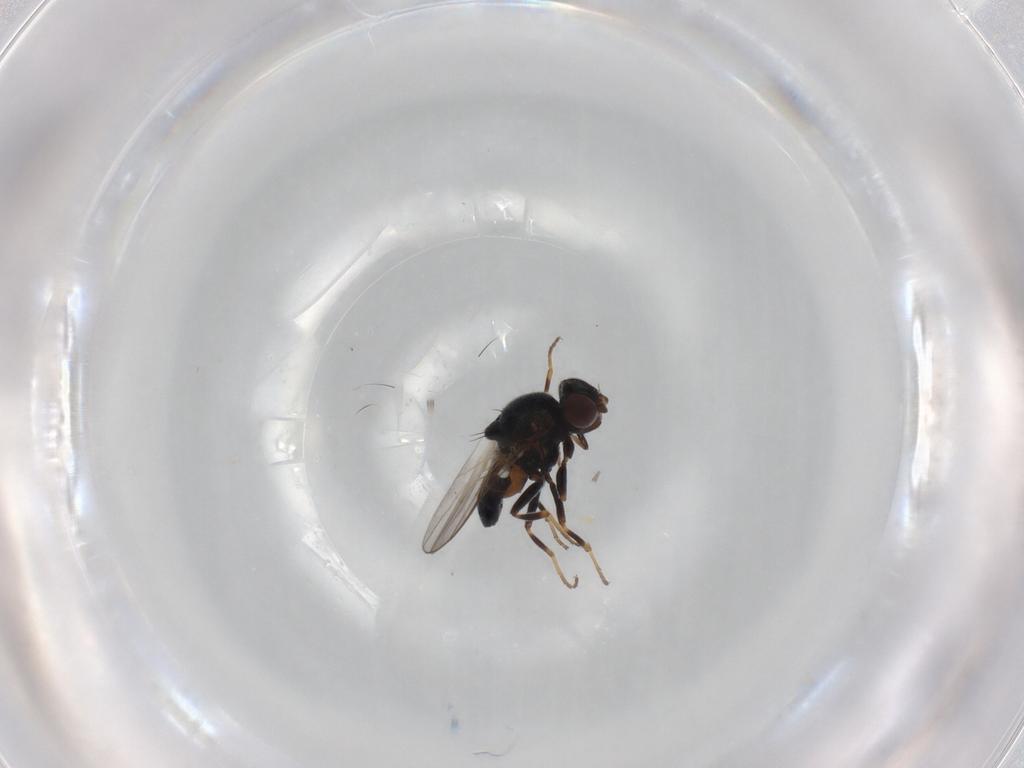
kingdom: Animalia
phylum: Arthropoda
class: Insecta
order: Diptera
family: Chloropidae
